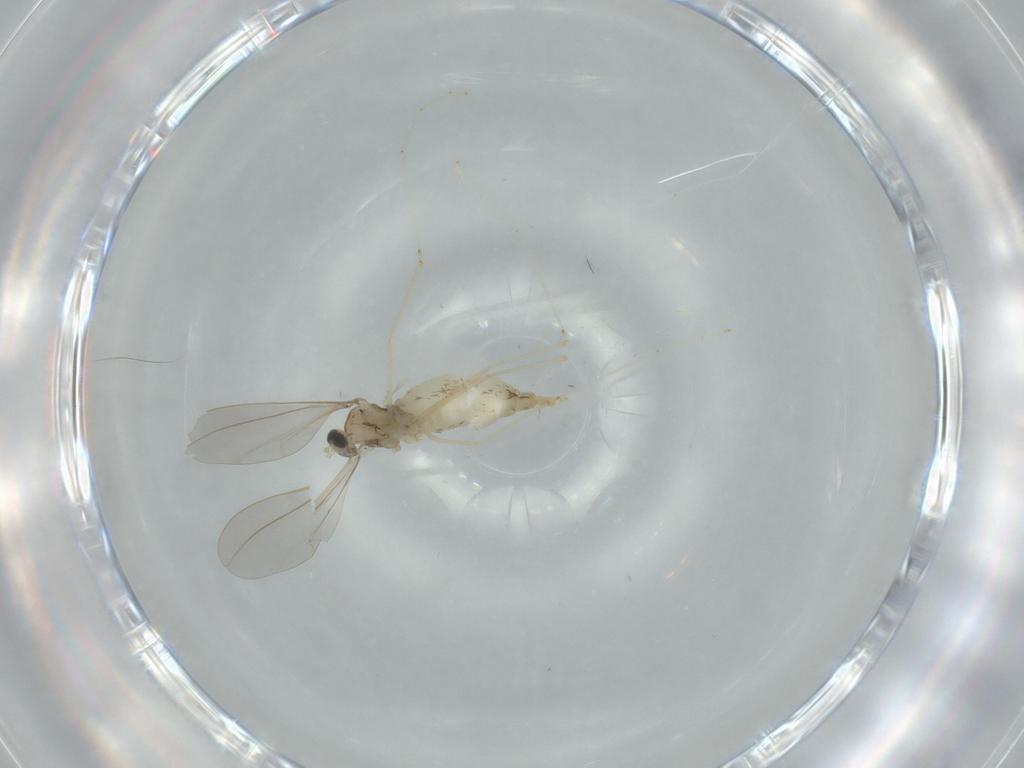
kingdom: Animalia
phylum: Arthropoda
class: Insecta
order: Diptera
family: Cecidomyiidae
